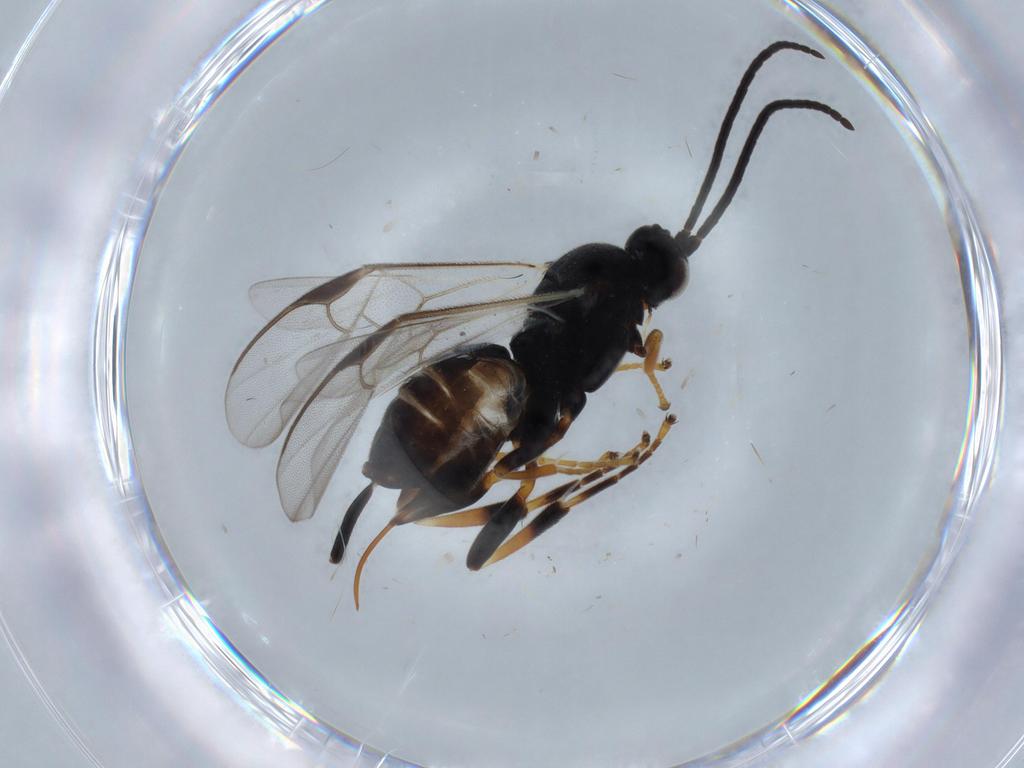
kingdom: Animalia
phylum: Arthropoda
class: Insecta
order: Hymenoptera
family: Braconidae
